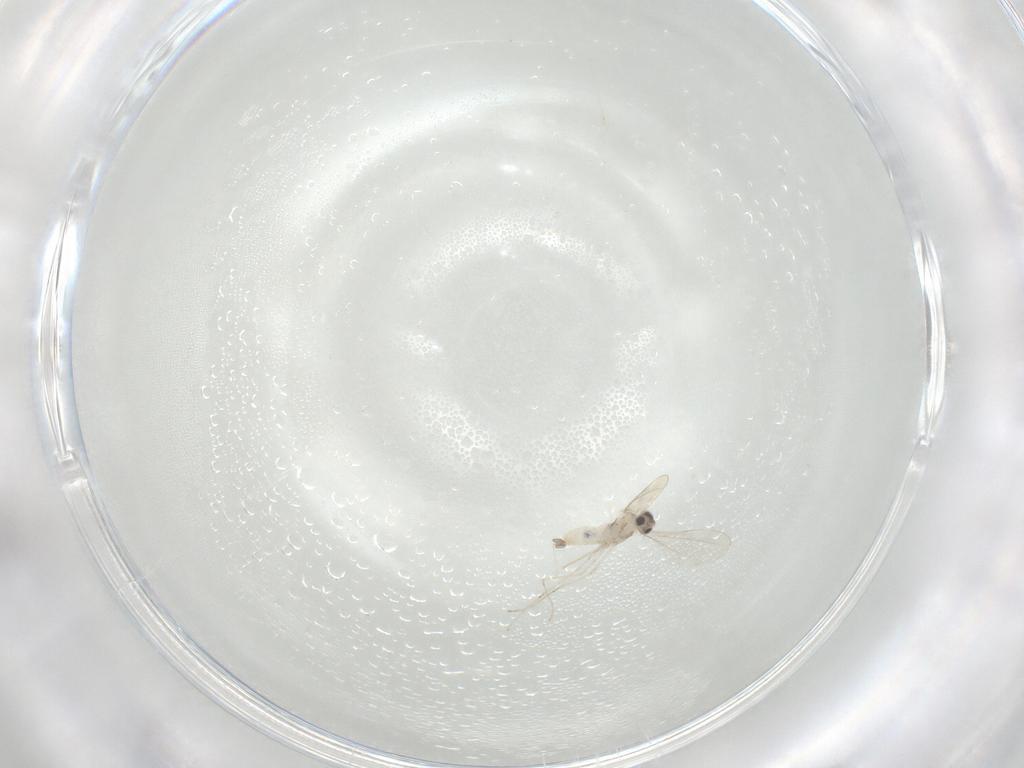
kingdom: Animalia
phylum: Arthropoda
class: Insecta
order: Diptera
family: Cecidomyiidae
